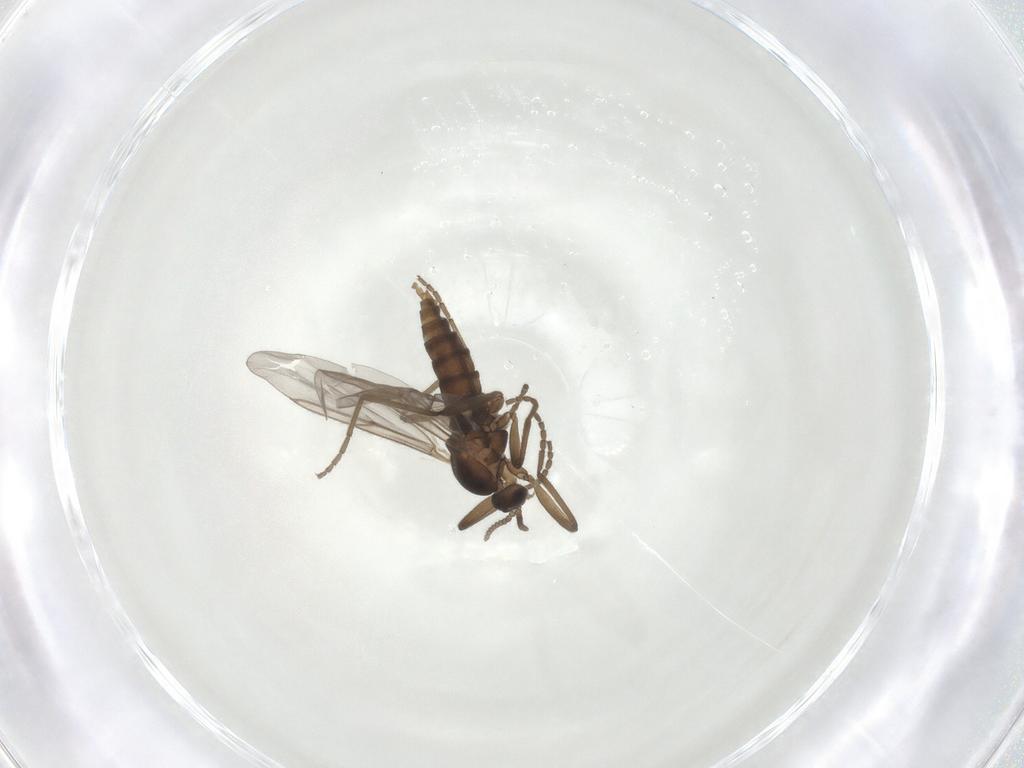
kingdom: Animalia
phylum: Arthropoda
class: Insecta
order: Diptera
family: Cecidomyiidae
